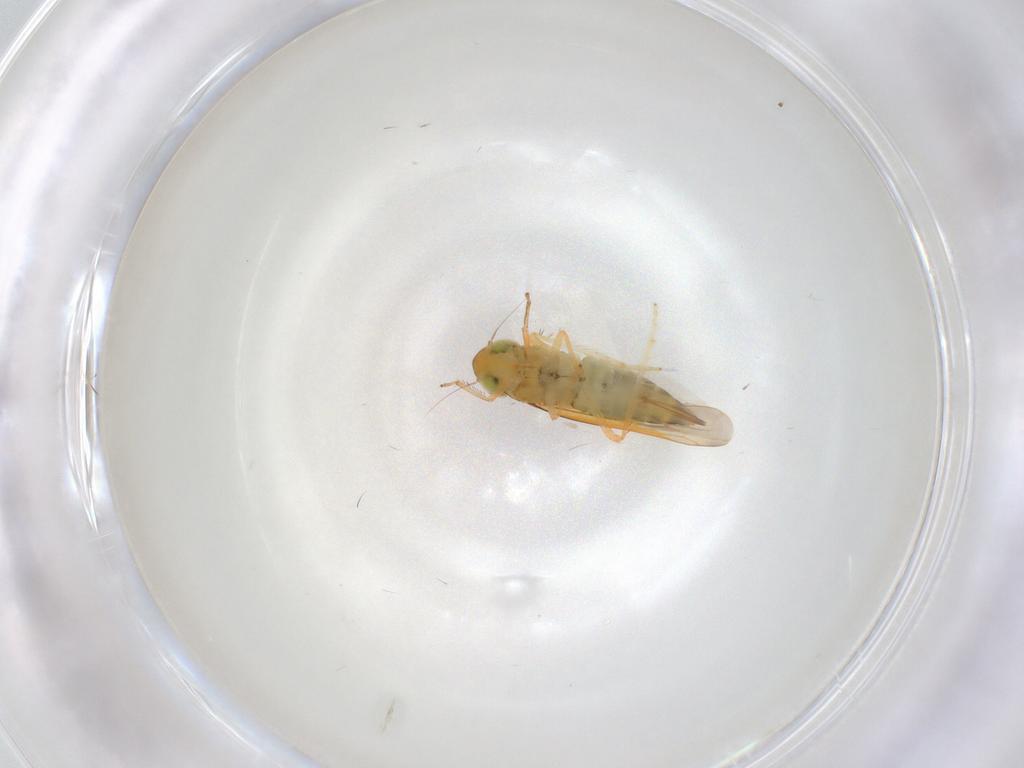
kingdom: Animalia
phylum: Arthropoda
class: Insecta
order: Hemiptera
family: Cicadellidae
